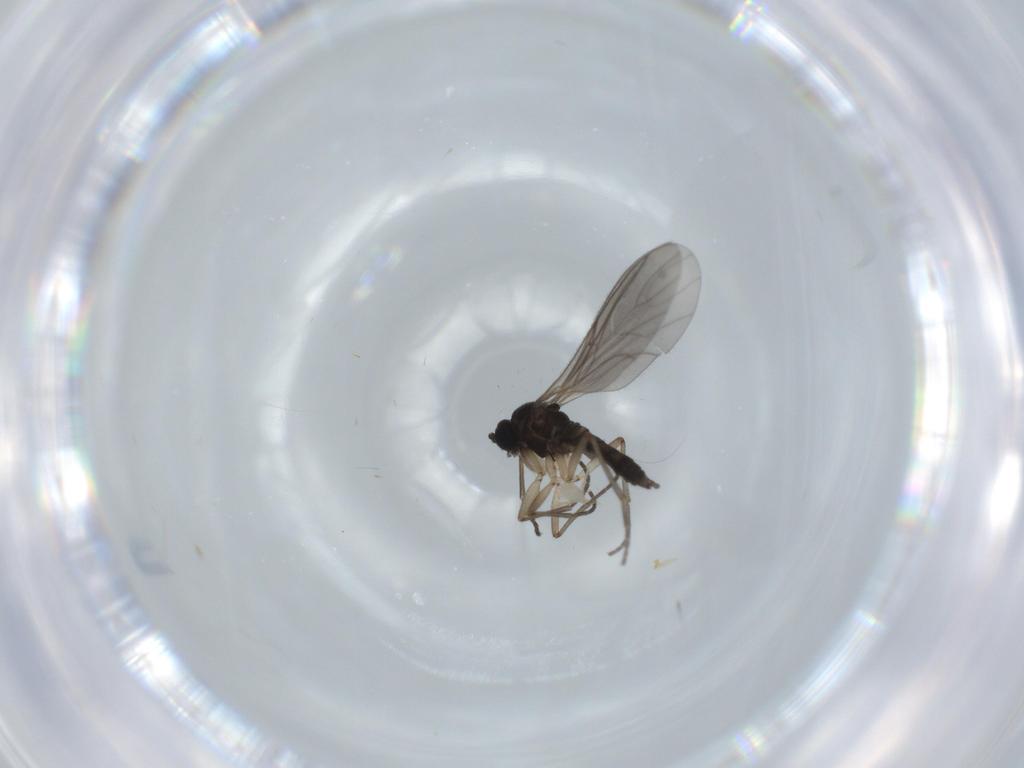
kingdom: Animalia
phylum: Arthropoda
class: Insecta
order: Diptera
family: Sciaridae
